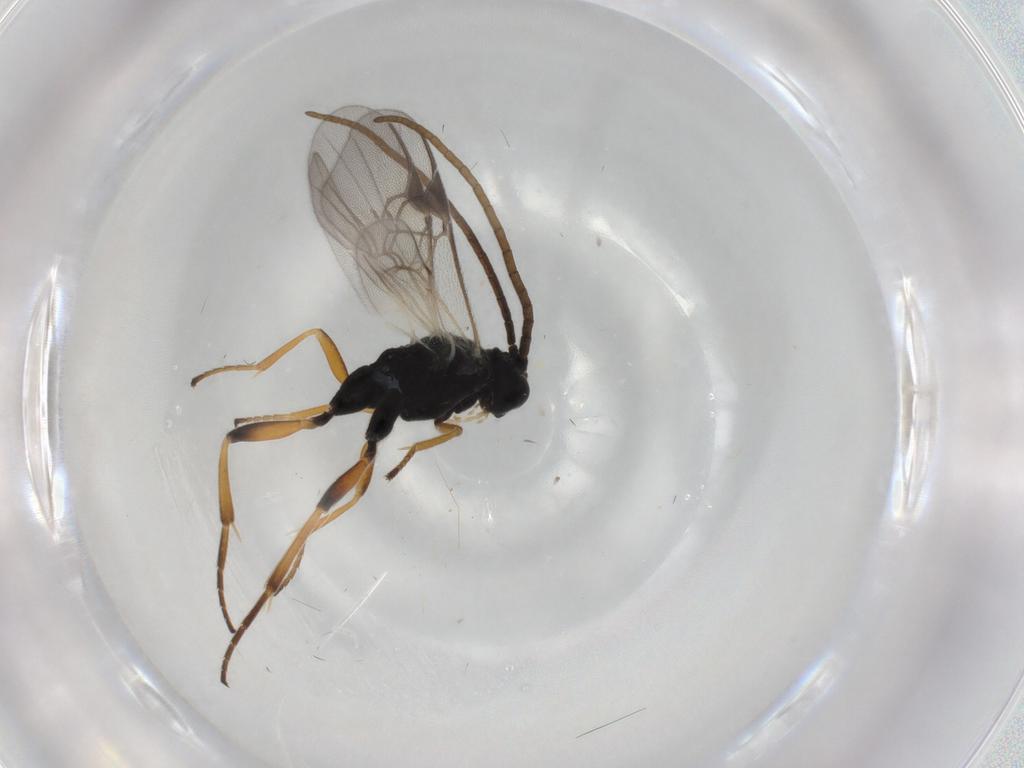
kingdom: Animalia
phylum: Arthropoda
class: Insecta
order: Hymenoptera
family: Braconidae
